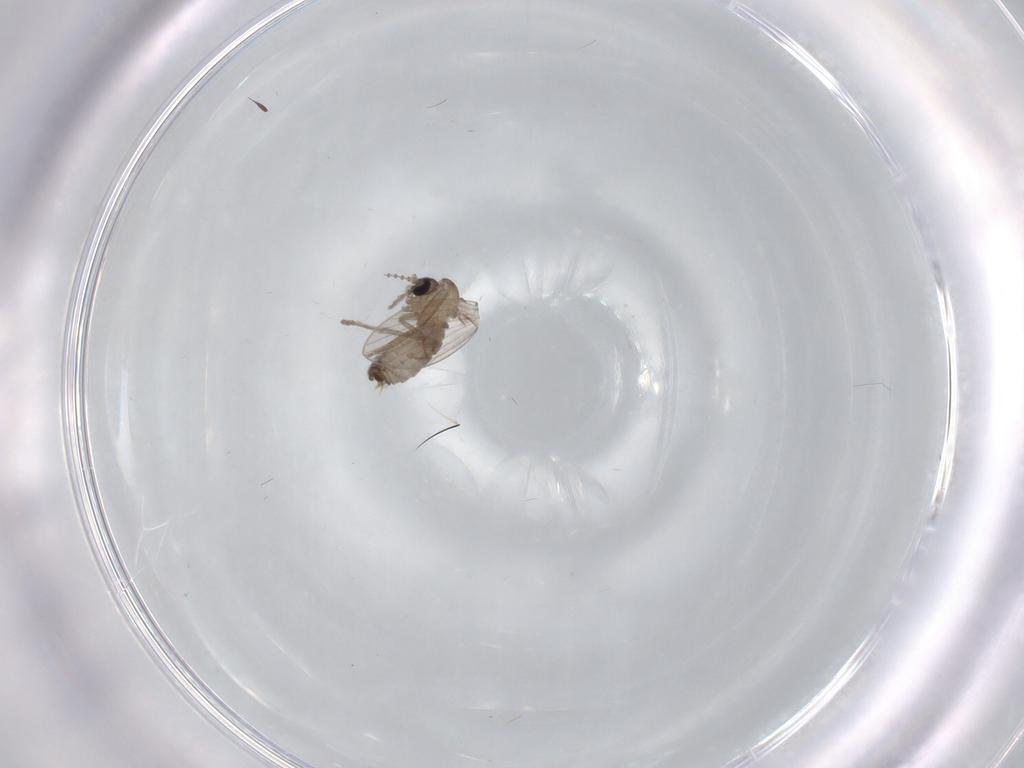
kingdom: Animalia
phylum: Arthropoda
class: Insecta
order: Diptera
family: Psychodidae
